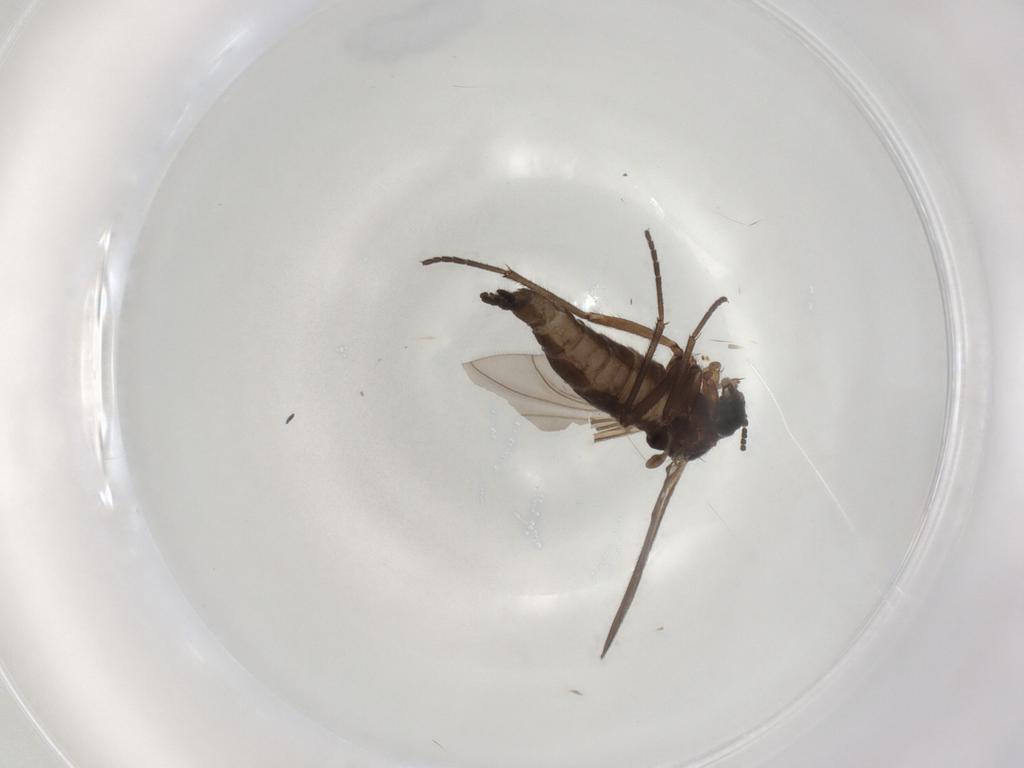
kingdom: Animalia
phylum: Arthropoda
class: Insecta
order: Diptera
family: Sciaridae
